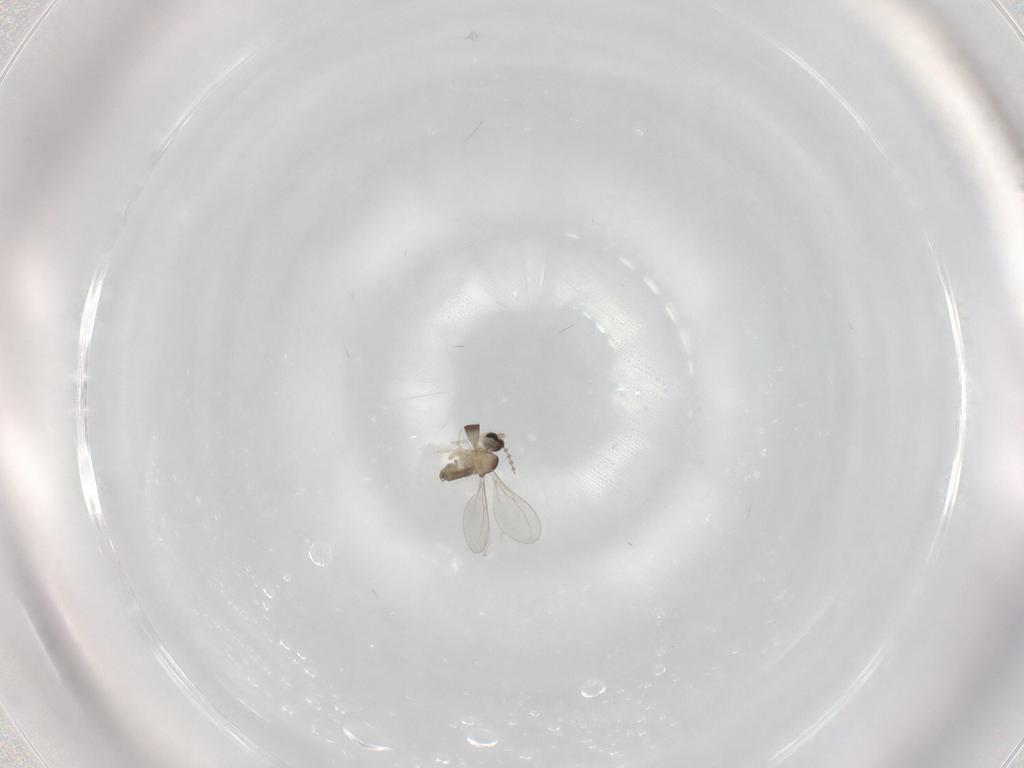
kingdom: Animalia
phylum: Arthropoda
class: Insecta
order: Diptera
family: Cecidomyiidae
